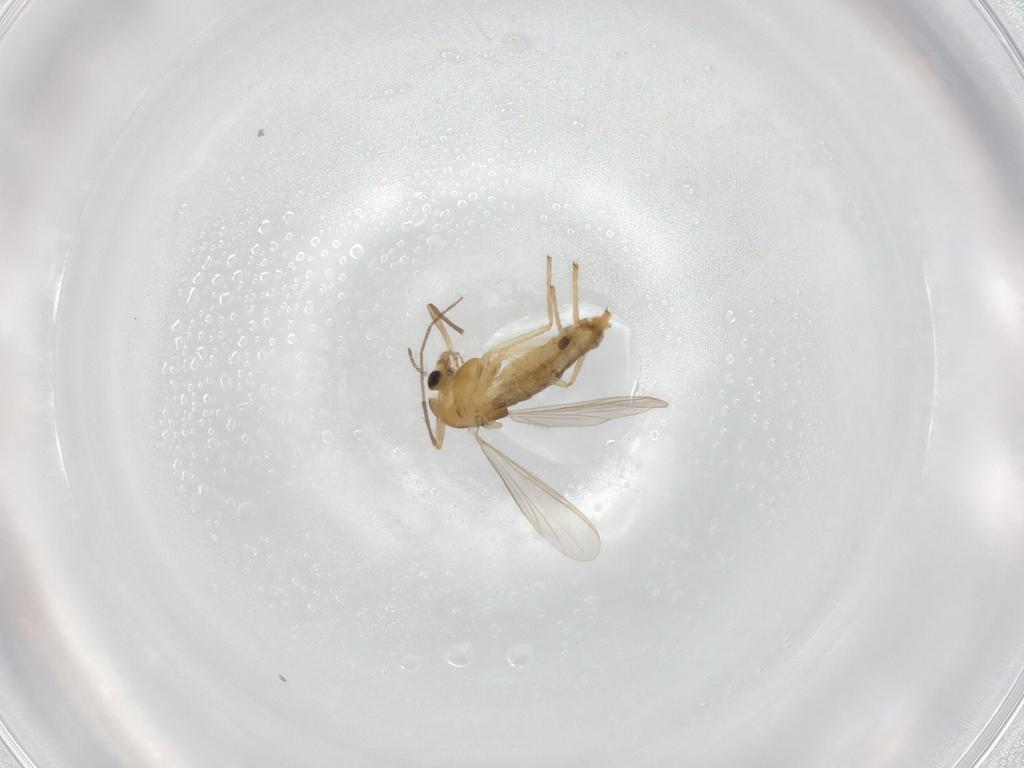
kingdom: Animalia
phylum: Arthropoda
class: Insecta
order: Diptera
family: Chironomidae
